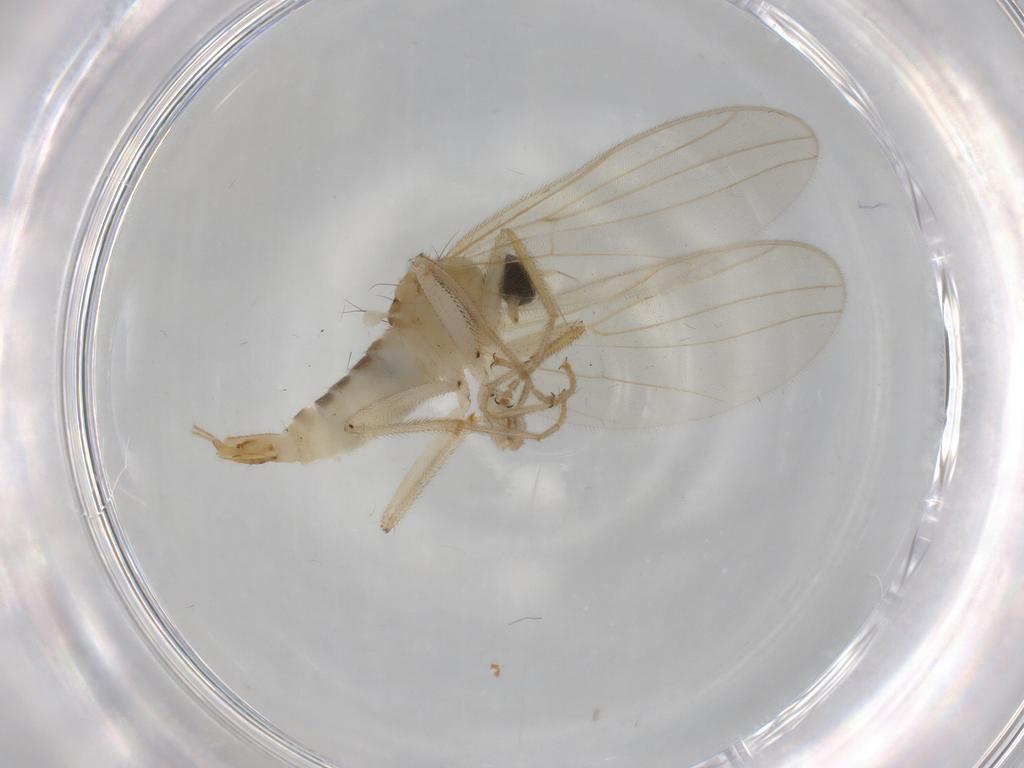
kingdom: Animalia
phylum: Arthropoda
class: Insecta
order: Diptera
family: Hybotidae
